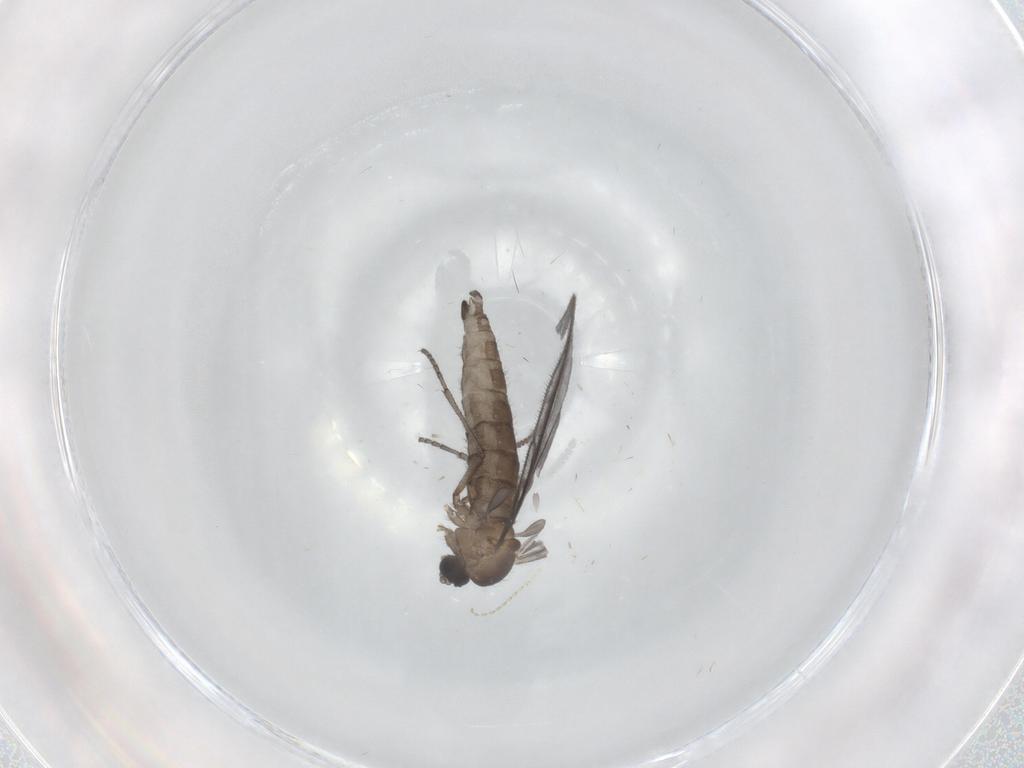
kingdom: Animalia
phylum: Arthropoda
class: Insecta
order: Diptera
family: Sciaridae
